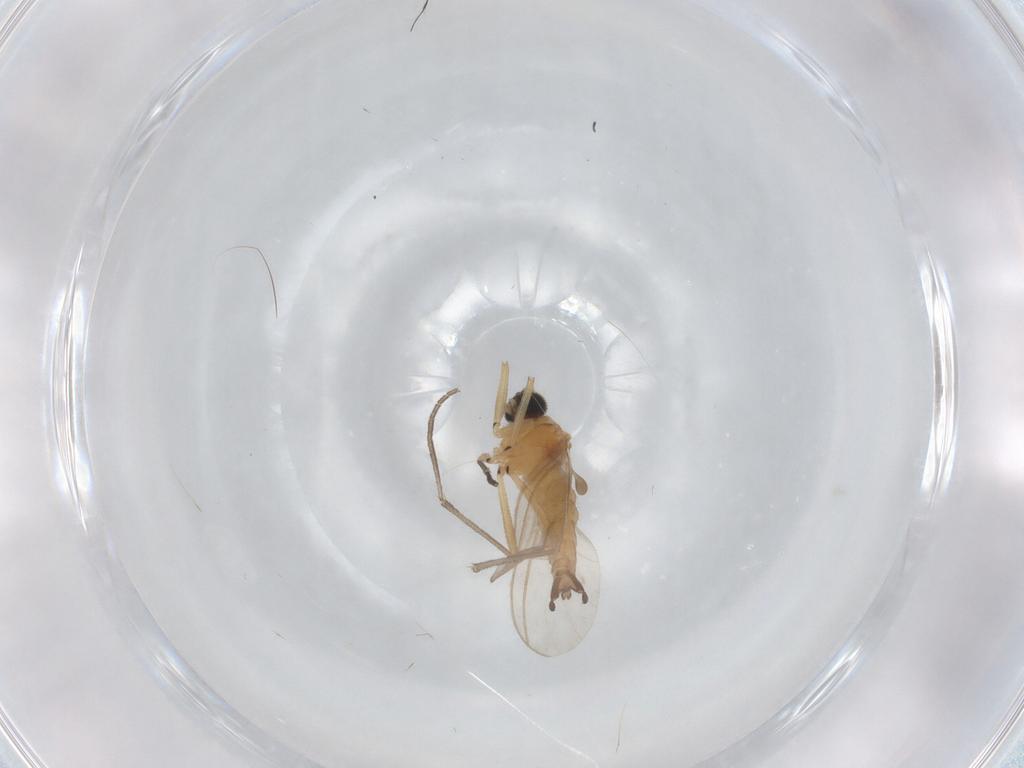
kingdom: Animalia
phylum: Arthropoda
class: Insecta
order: Diptera
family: Sciaridae
